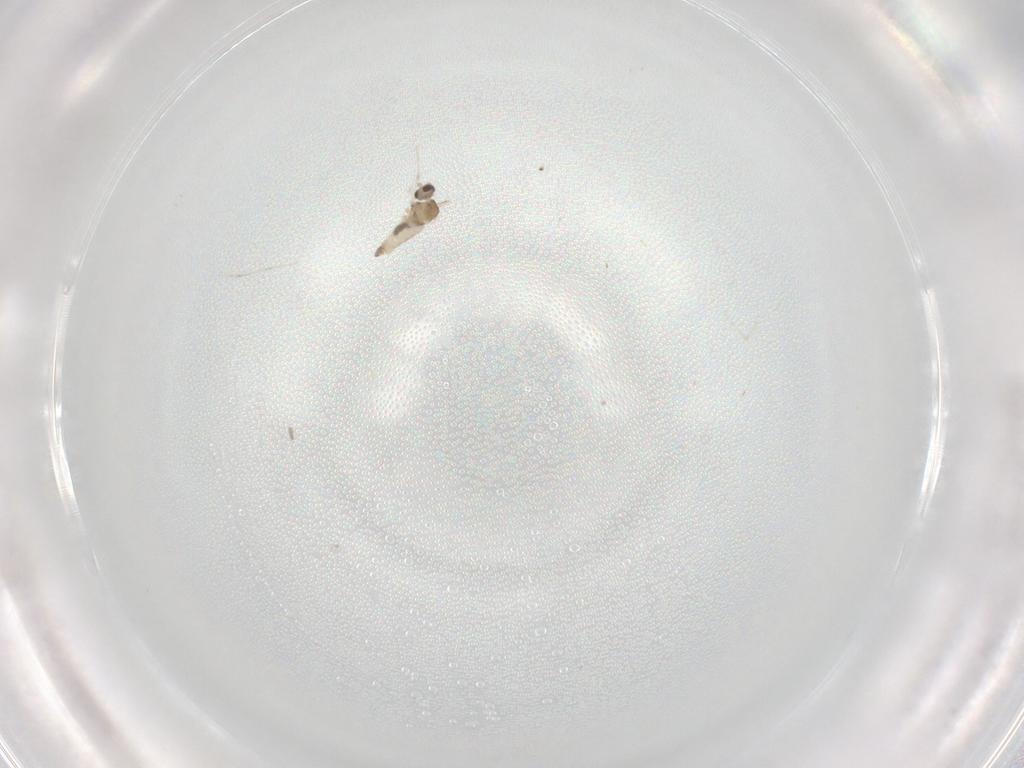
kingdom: Animalia
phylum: Arthropoda
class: Insecta
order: Diptera
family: Cecidomyiidae
